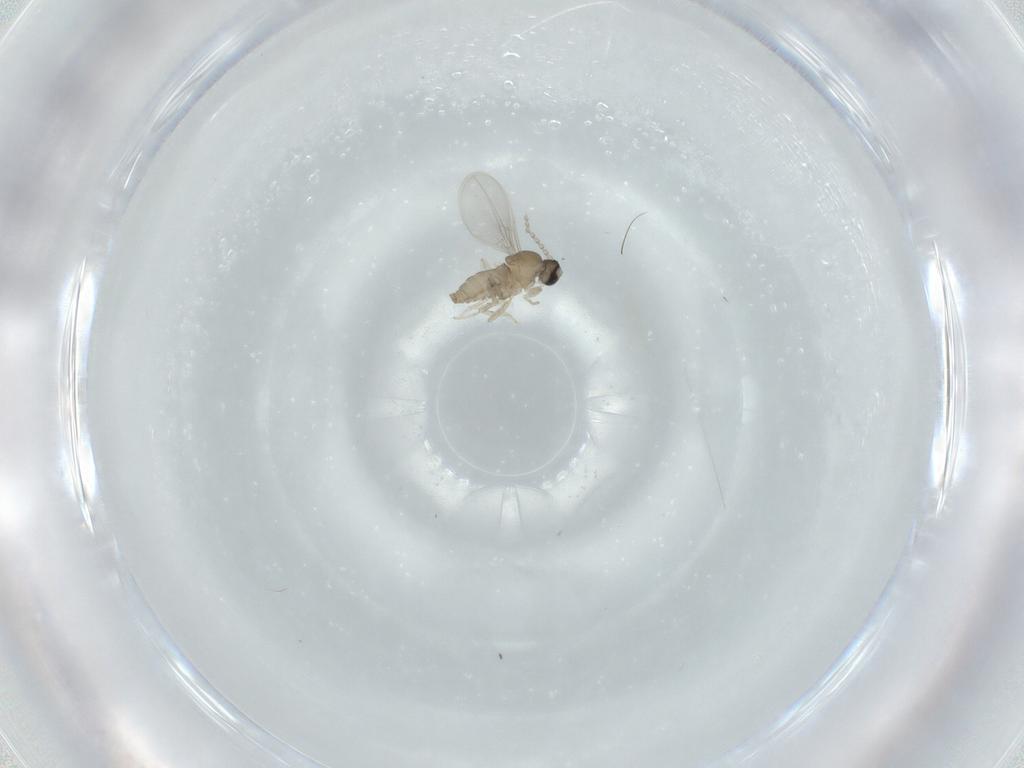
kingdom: Animalia
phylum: Arthropoda
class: Insecta
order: Diptera
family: Cecidomyiidae
